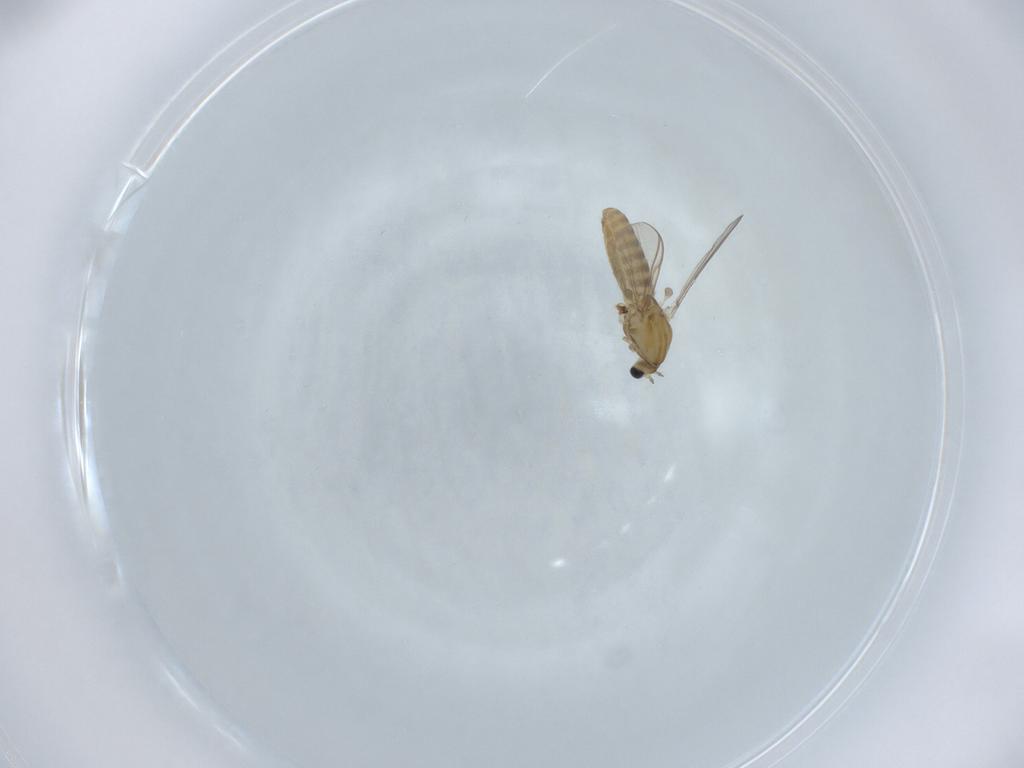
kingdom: Animalia
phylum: Arthropoda
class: Insecta
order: Diptera
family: Chironomidae
